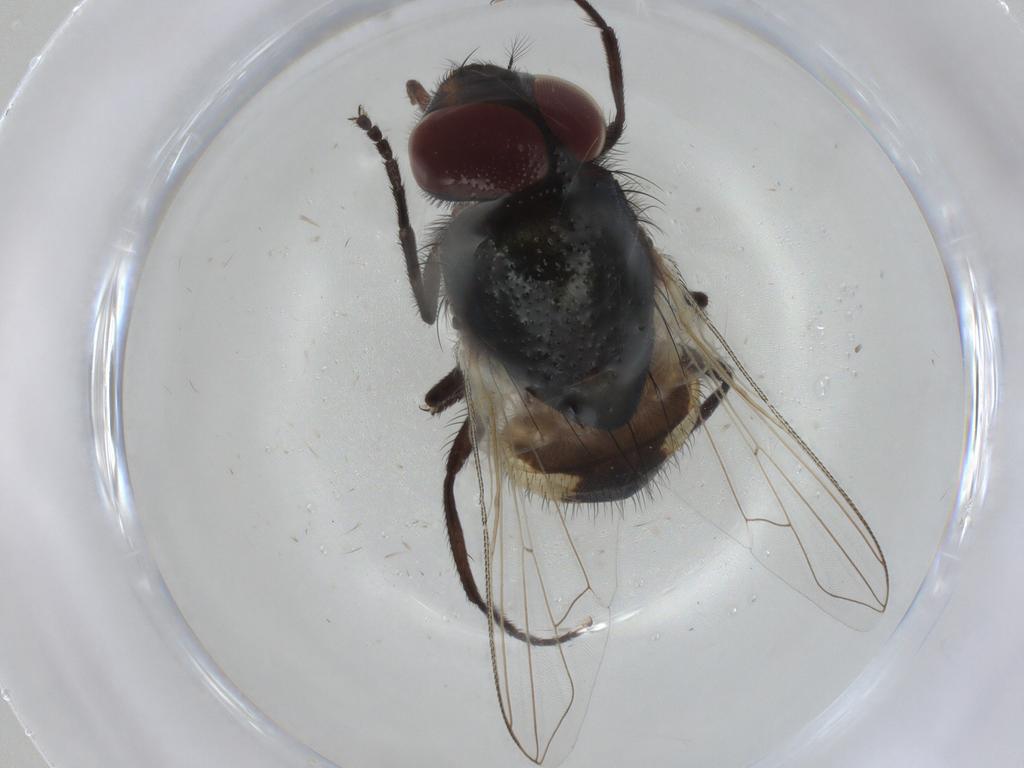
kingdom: Animalia
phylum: Arthropoda
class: Insecta
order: Diptera
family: Muscidae
